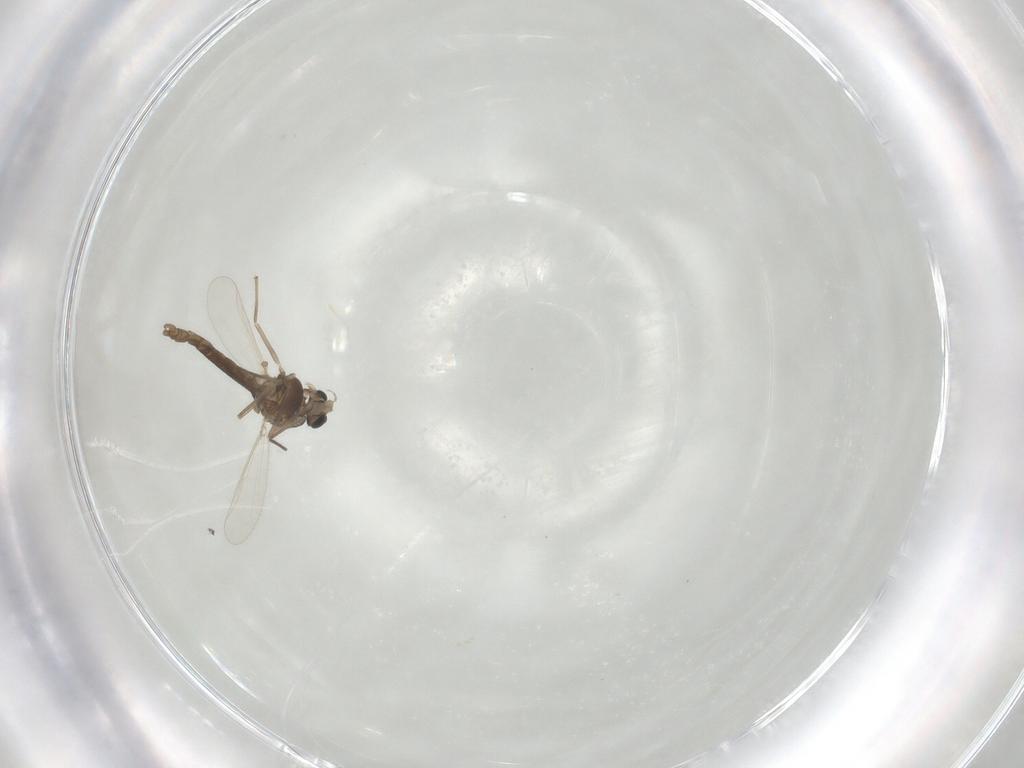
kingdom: Animalia
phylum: Arthropoda
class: Insecta
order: Diptera
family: Chironomidae
